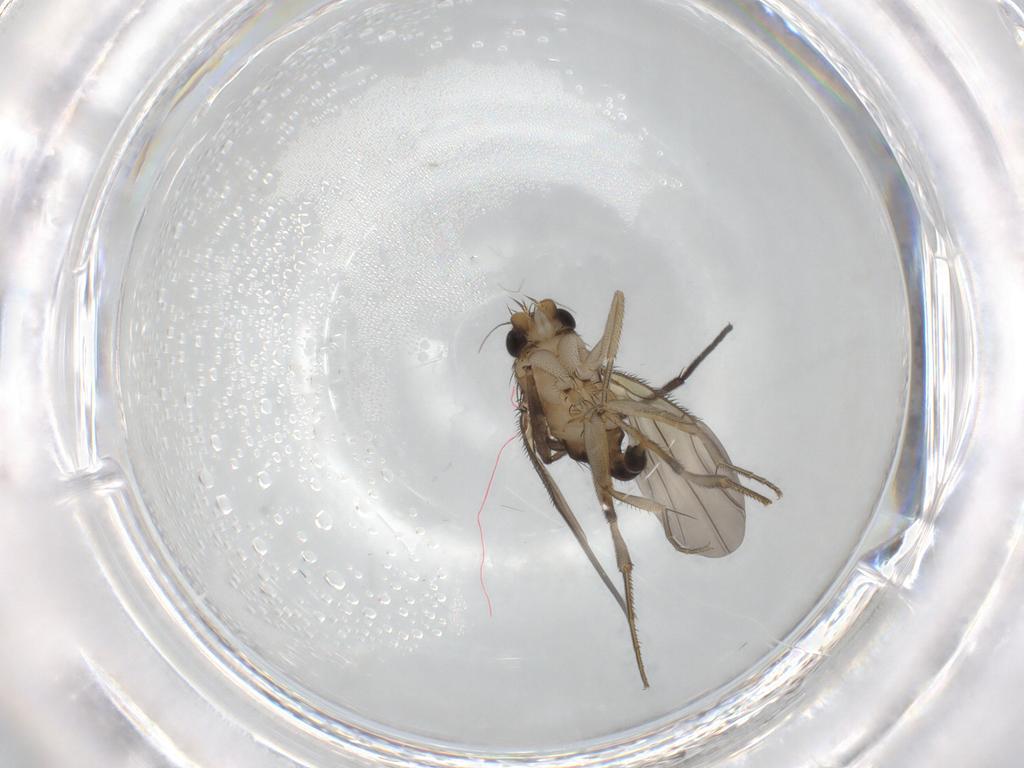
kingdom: Animalia
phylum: Arthropoda
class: Insecta
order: Diptera
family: Phoridae
